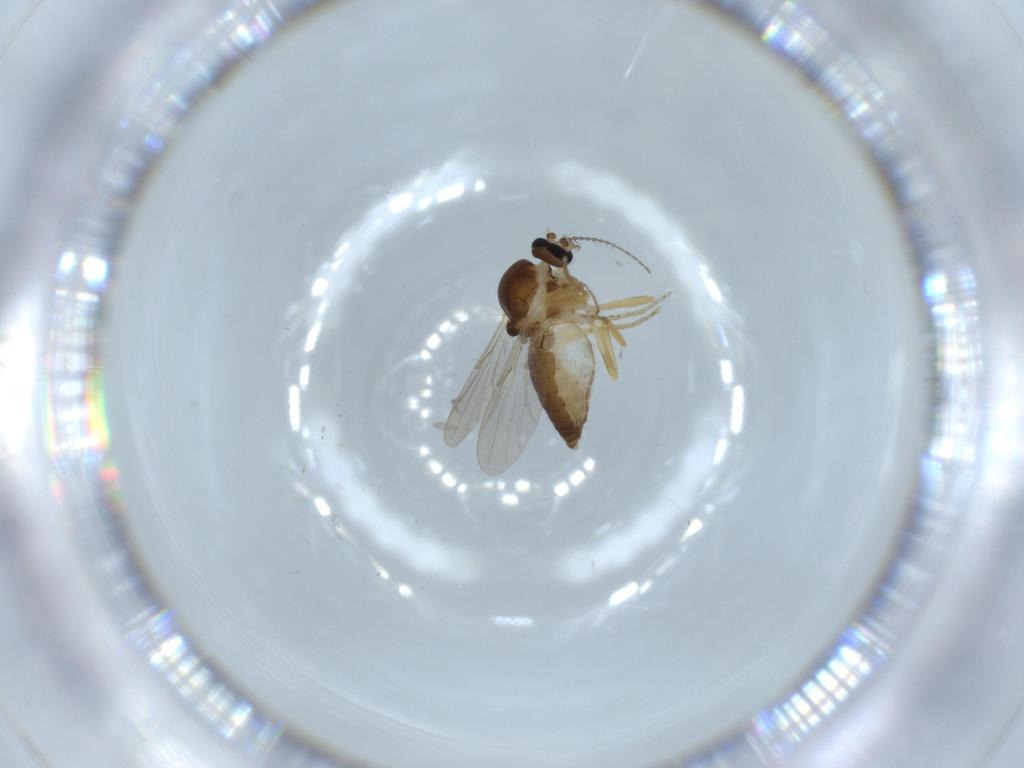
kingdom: Animalia
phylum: Arthropoda
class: Insecta
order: Diptera
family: Ceratopogonidae
